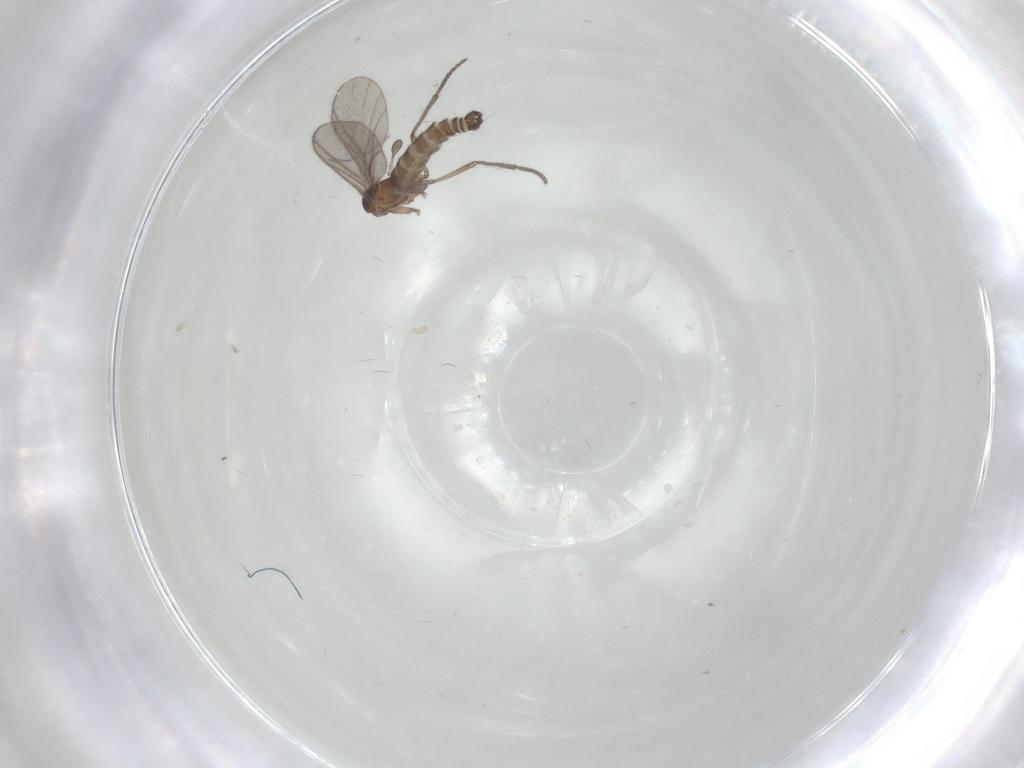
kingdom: Animalia
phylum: Arthropoda
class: Insecta
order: Diptera
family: Sciaridae
